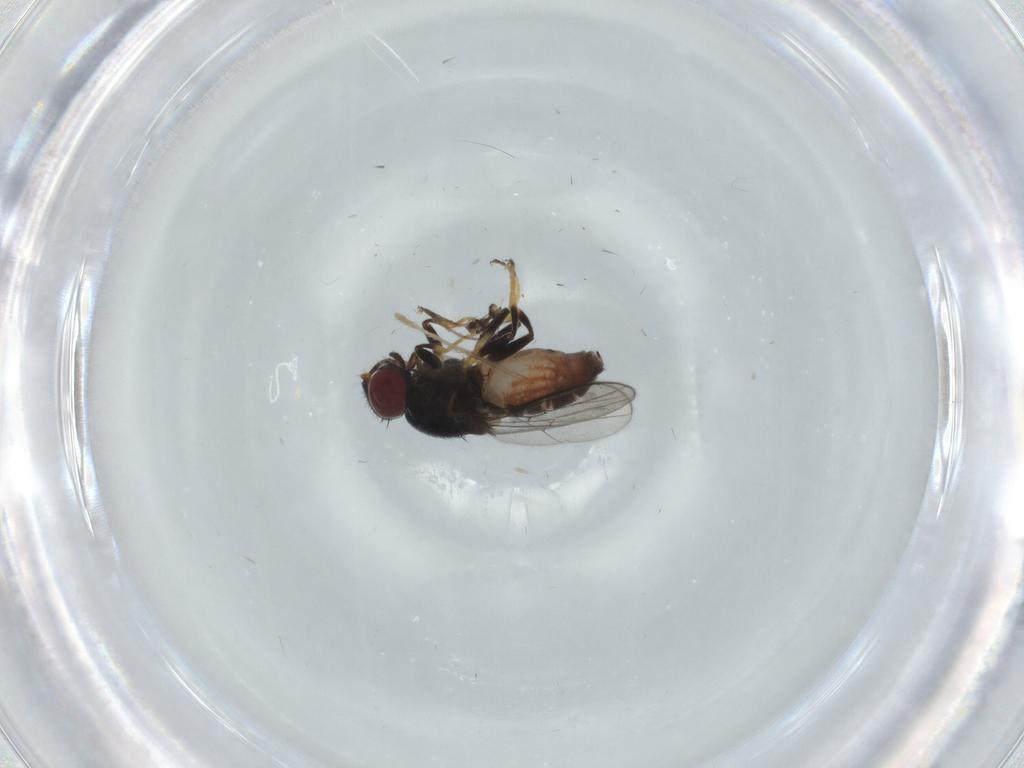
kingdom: Animalia
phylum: Arthropoda
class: Insecta
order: Diptera
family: Chloropidae
